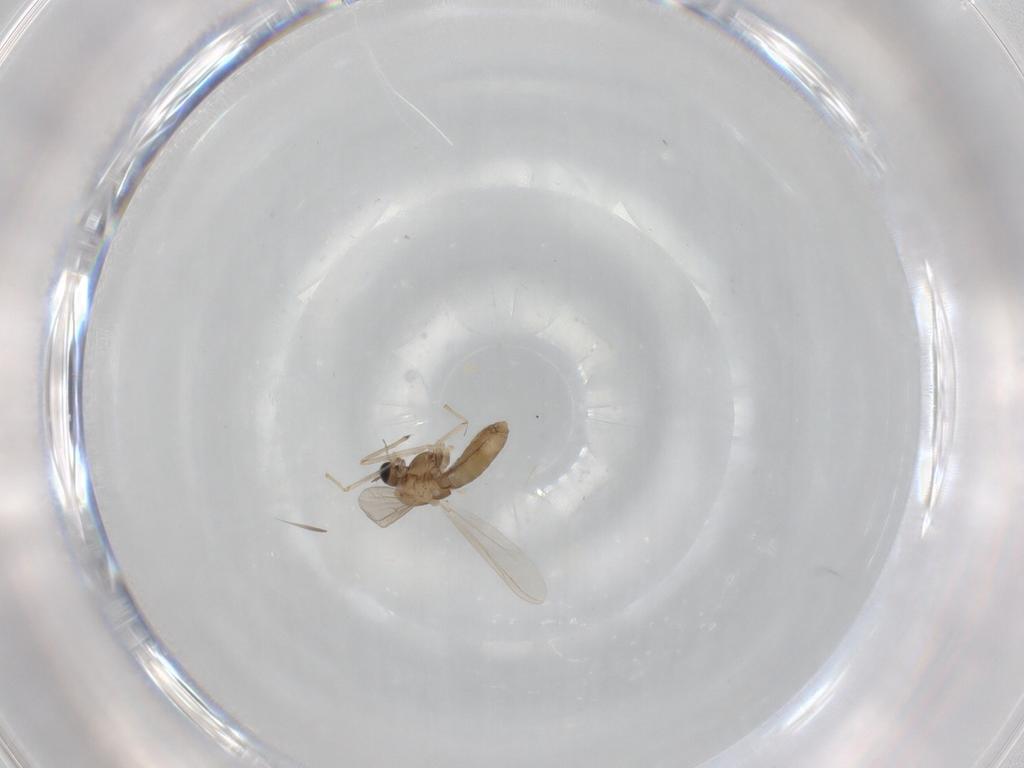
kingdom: Animalia
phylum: Arthropoda
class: Insecta
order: Diptera
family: Chironomidae
